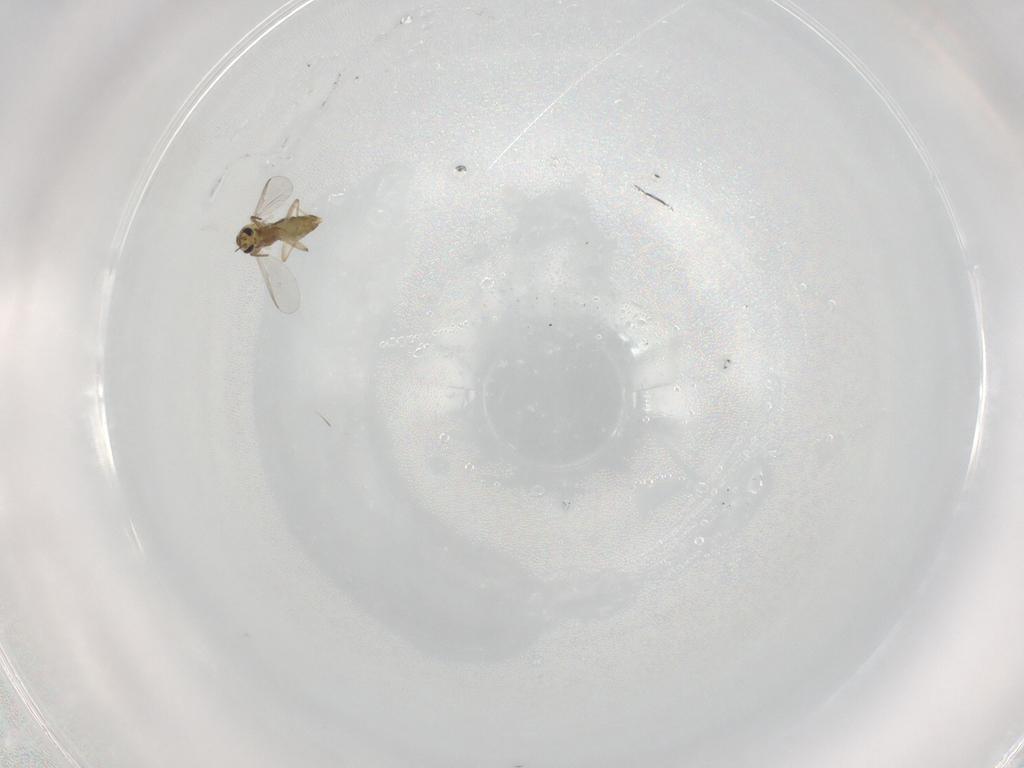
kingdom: Animalia
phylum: Arthropoda
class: Insecta
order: Diptera
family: Chironomidae
